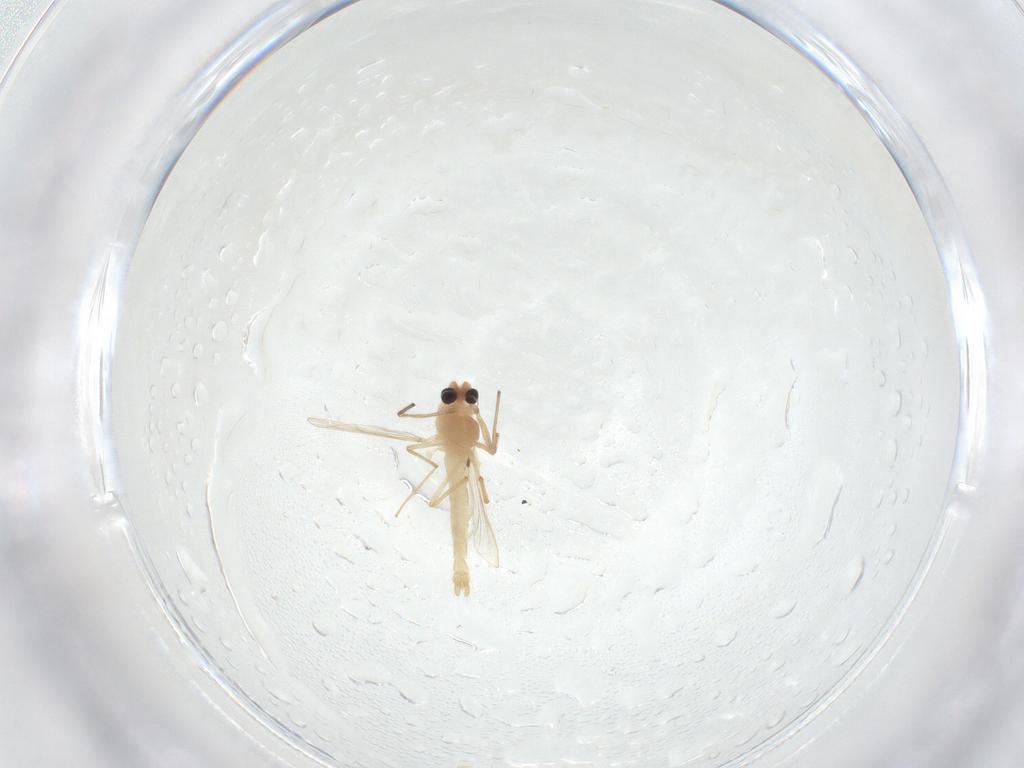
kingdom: Animalia
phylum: Arthropoda
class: Insecta
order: Diptera
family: Chironomidae
